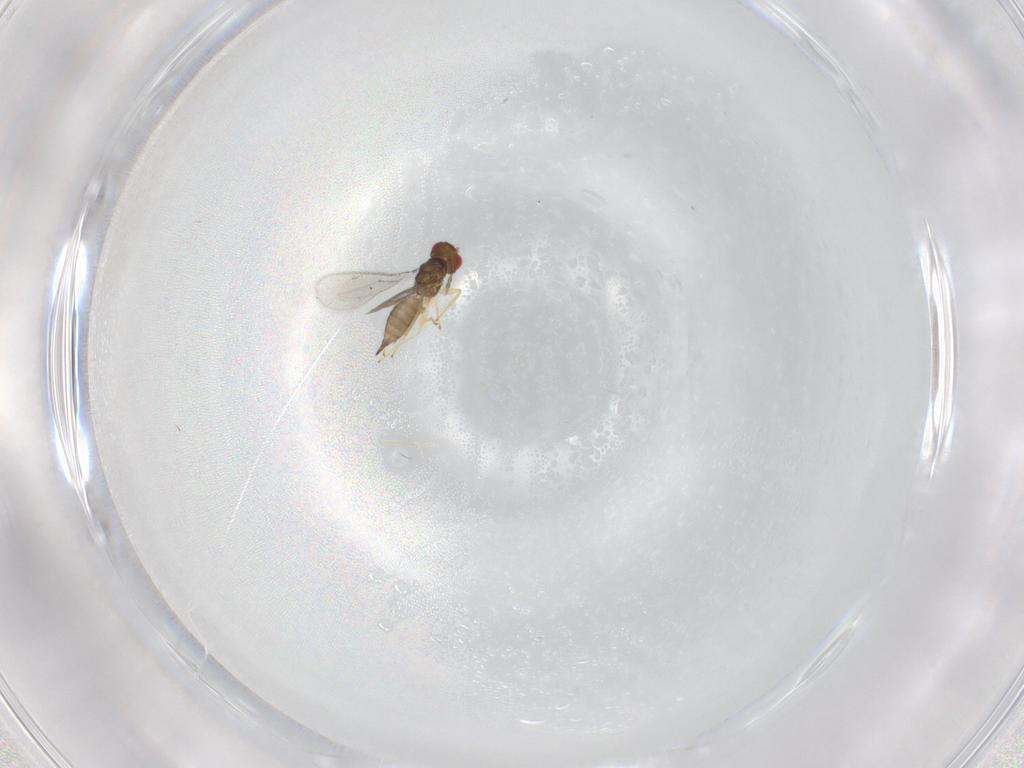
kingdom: Animalia
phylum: Arthropoda
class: Insecta
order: Hymenoptera
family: Eulophidae
